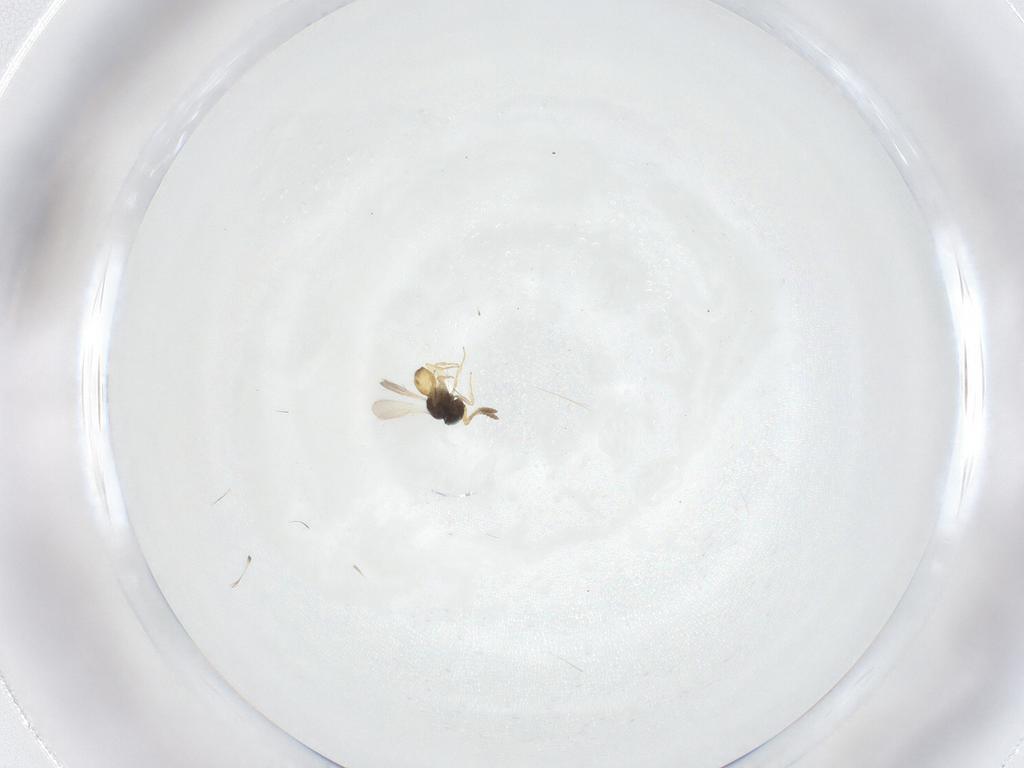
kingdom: Animalia
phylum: Arthropoda
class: Insecta
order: Hymenoptera
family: Scelionidae
